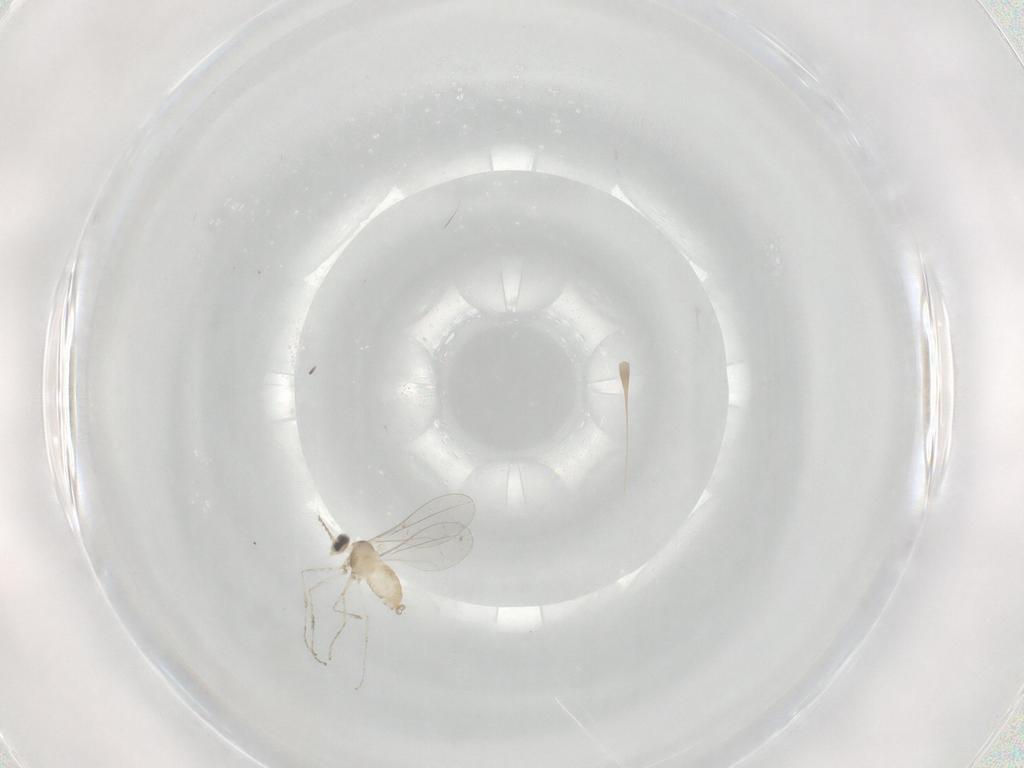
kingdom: Animalia
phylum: Arthropoda
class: Insecta
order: Diptera
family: Cecidomyiidae
